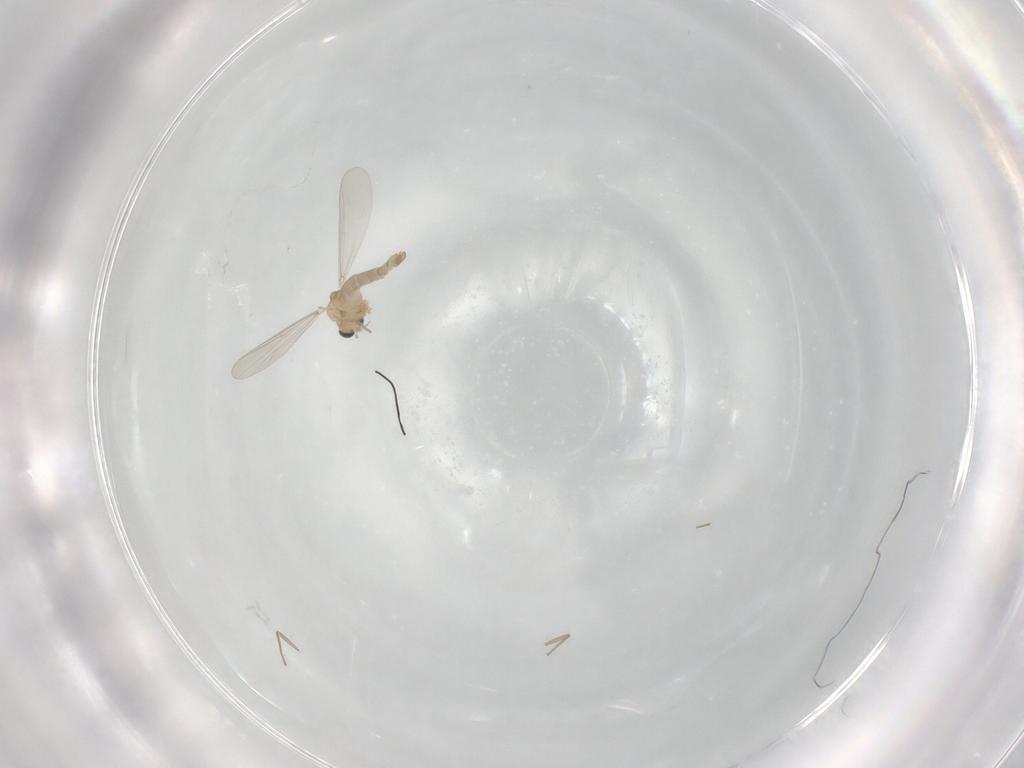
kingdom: Animalia
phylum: Arthropoda
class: Insecta
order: Diptera
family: Chironomidae
